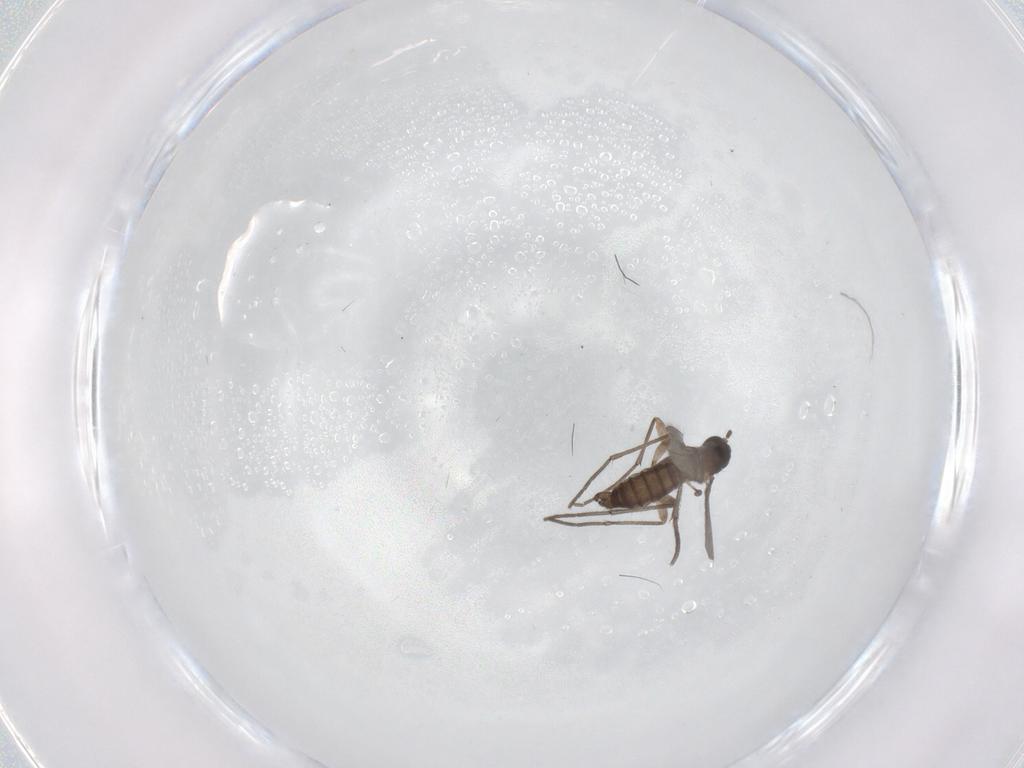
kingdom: Animalia
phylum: Arthropoda
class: Insecta
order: Diptera
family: Sciaridae
